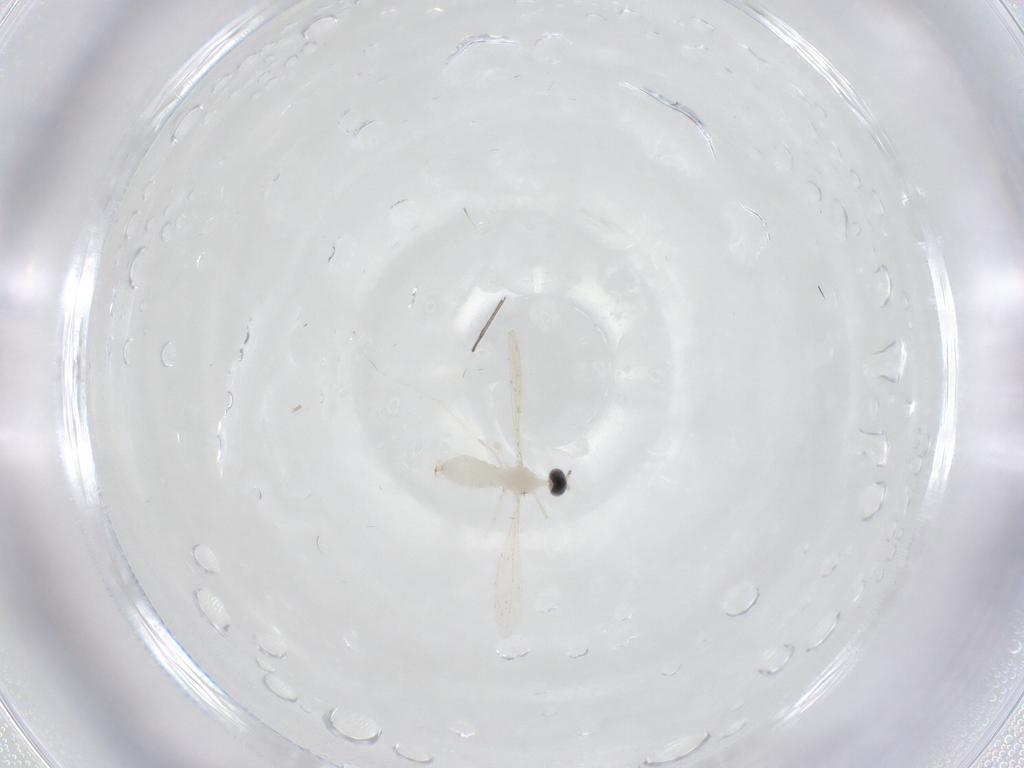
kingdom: Animalia
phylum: Arthropoda
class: Insecta
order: Diptera
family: Cecidomyiidae
